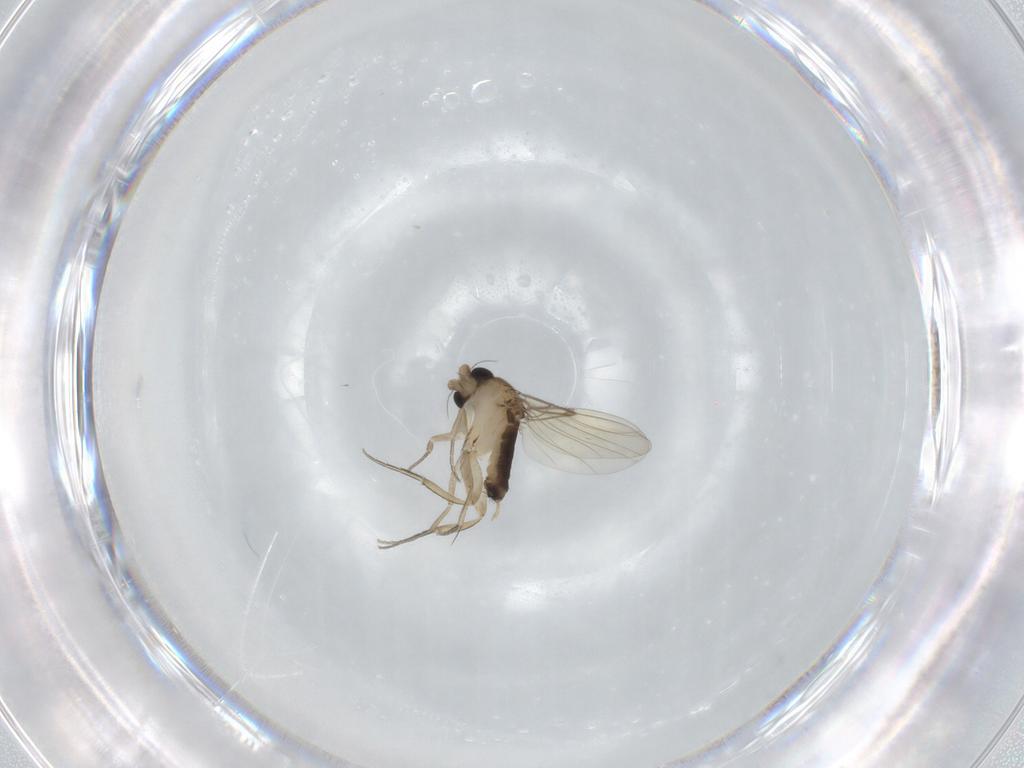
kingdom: Animalia
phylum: Arthropoda
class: Insecta
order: Diptera
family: Phoridae
